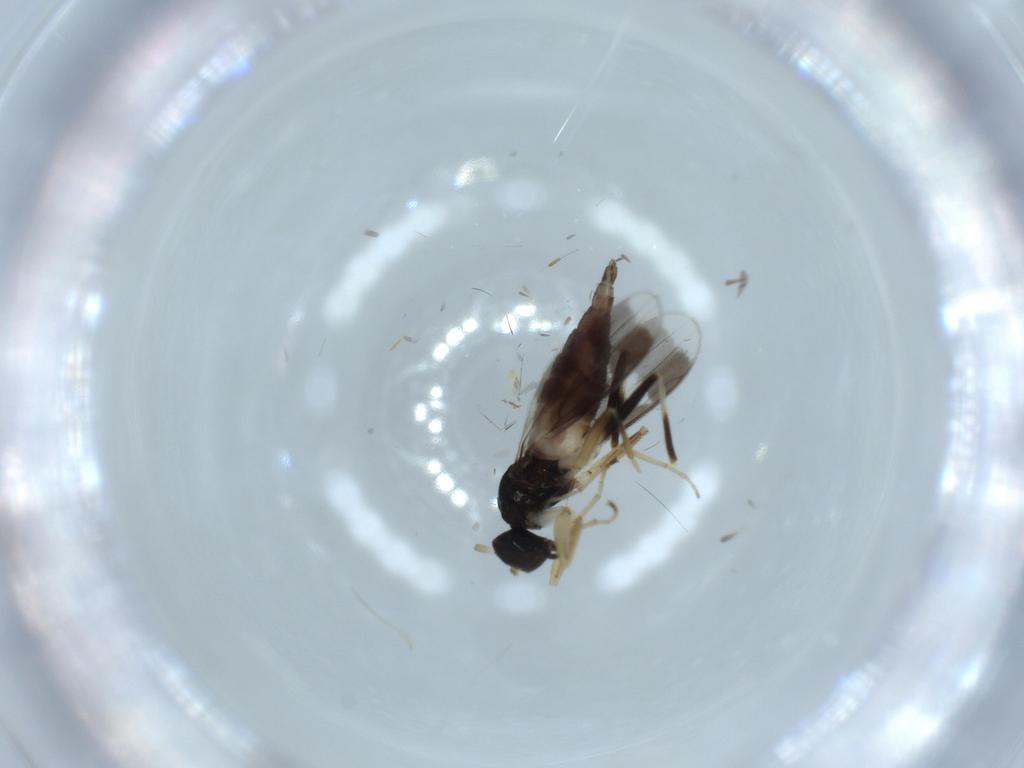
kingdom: Animalia
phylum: Arthropoda
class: Insecta
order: Diptera
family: Hybotidae
